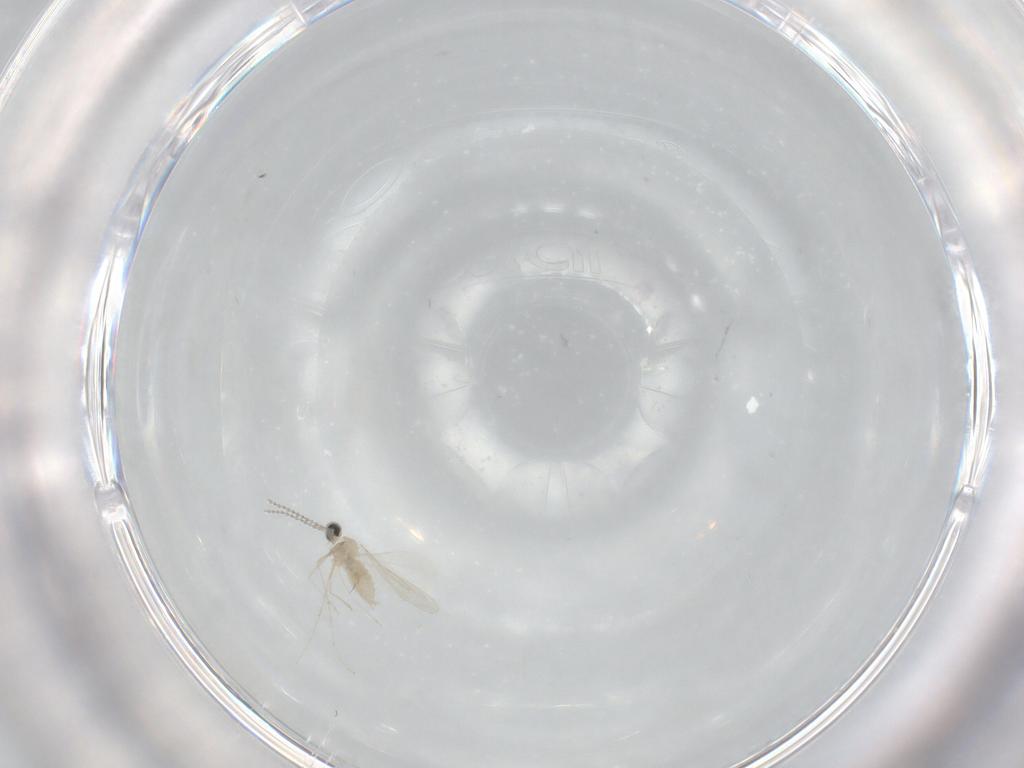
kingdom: Animalia
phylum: Arthropoda
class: Insecta
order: Diptera
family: Cecidomyiidae
